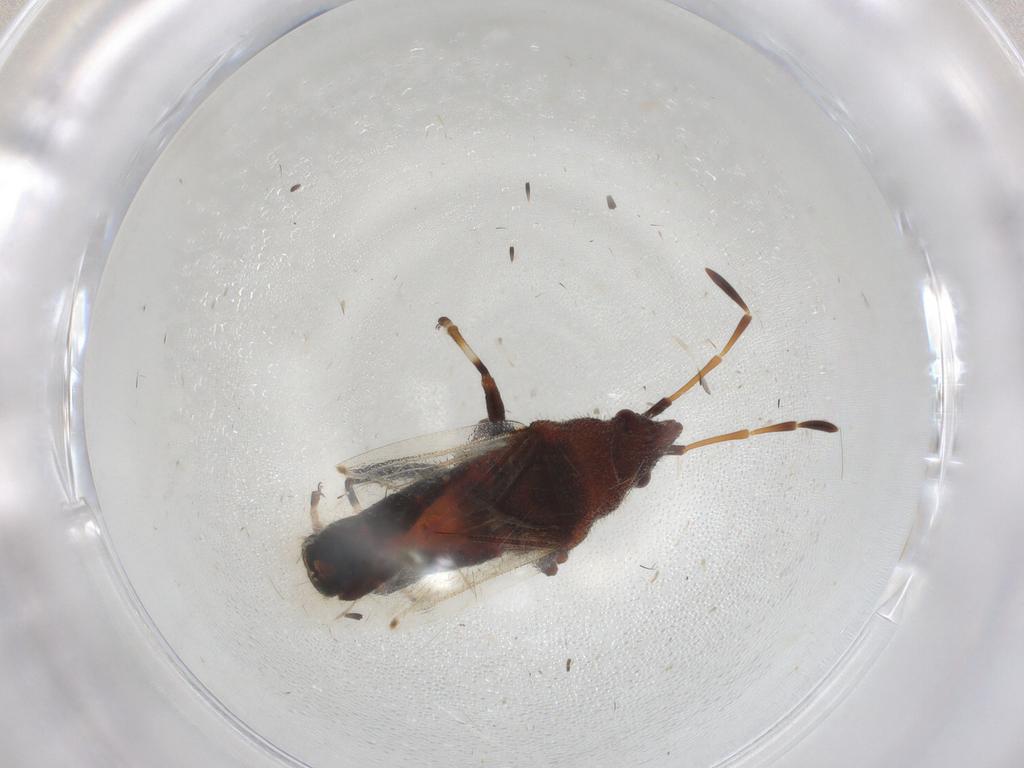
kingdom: Animalia
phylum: Arthropoda
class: Insecta
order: Hemiptera
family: Oxycarenidae
